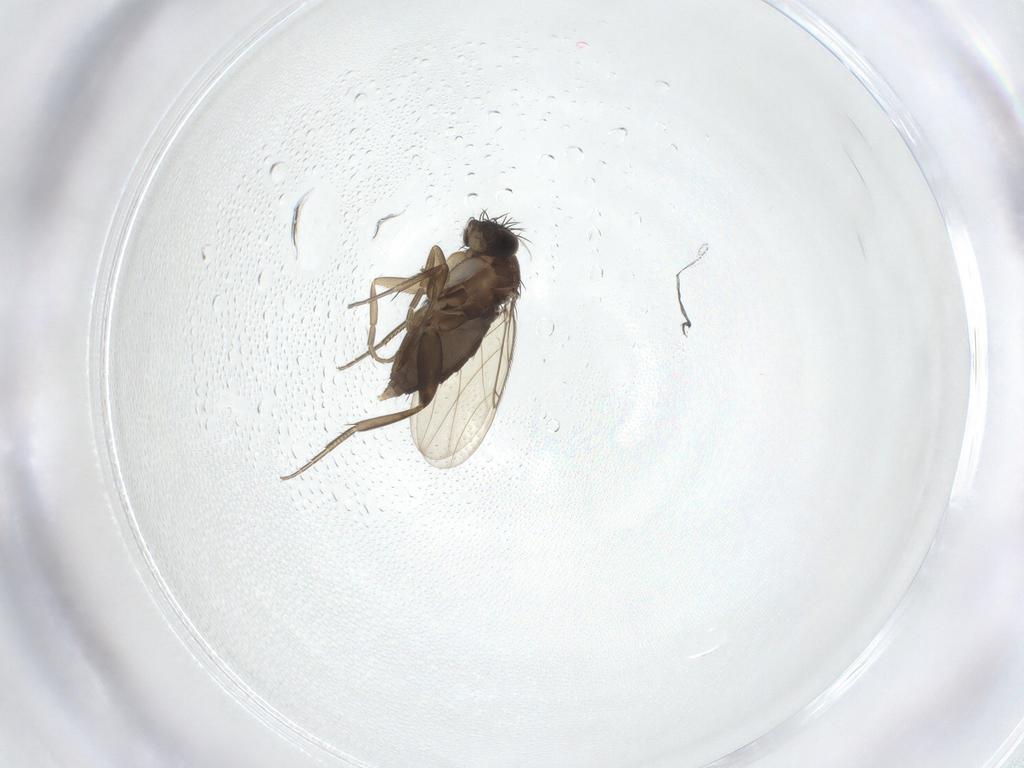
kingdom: Animalia
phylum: Arthropoda
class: Insecta
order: Diptera
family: Phoridae
